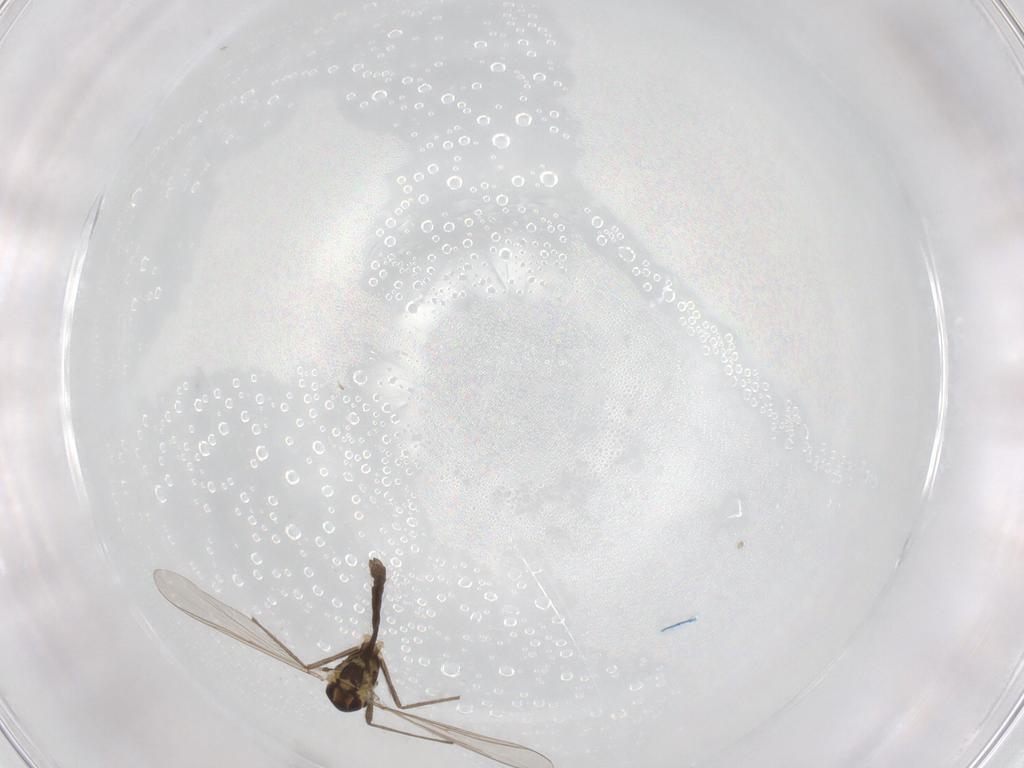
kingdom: Animalia
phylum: Arthropoda
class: Insecta
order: Diptera
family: Chironomidae
